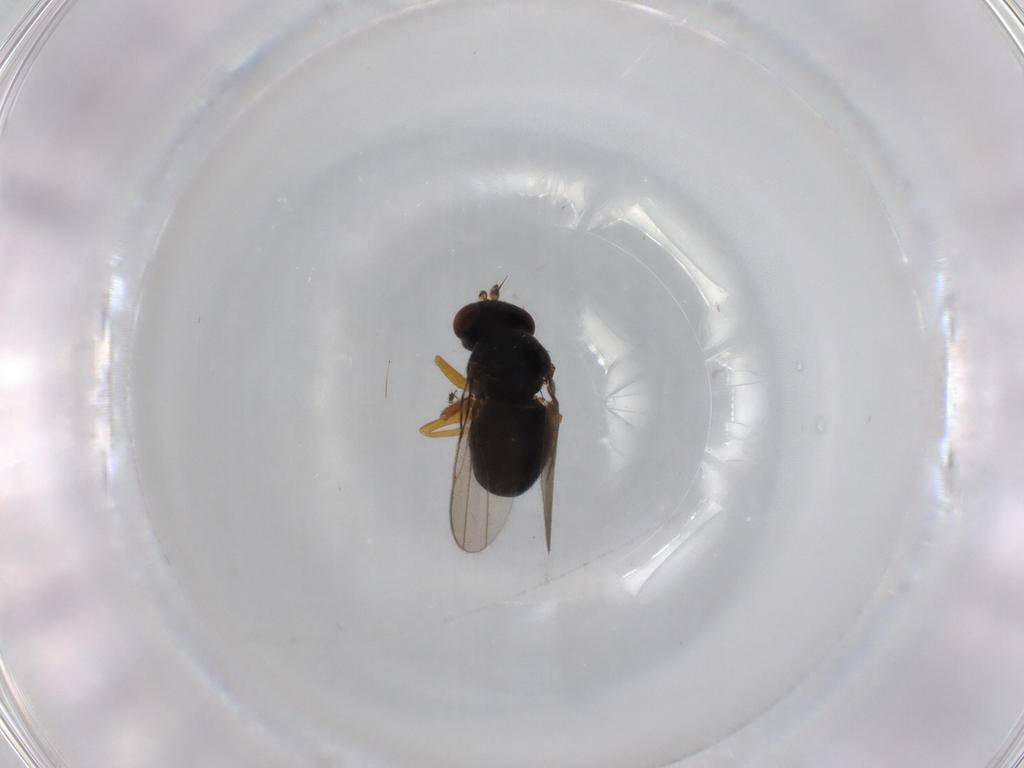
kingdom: Animalia
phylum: Arthropoda
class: Insecta
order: Diptera
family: Ephydridae
